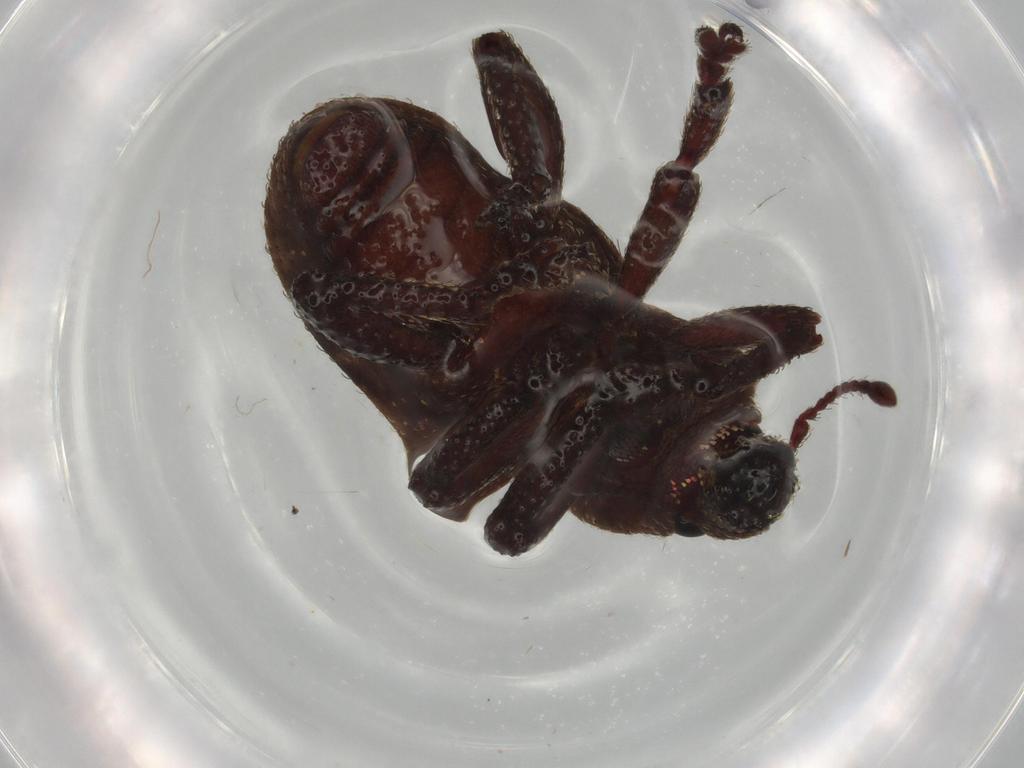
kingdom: Animalia
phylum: Arthropoda
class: Insecta
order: Coleoptera
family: Curculionidae
